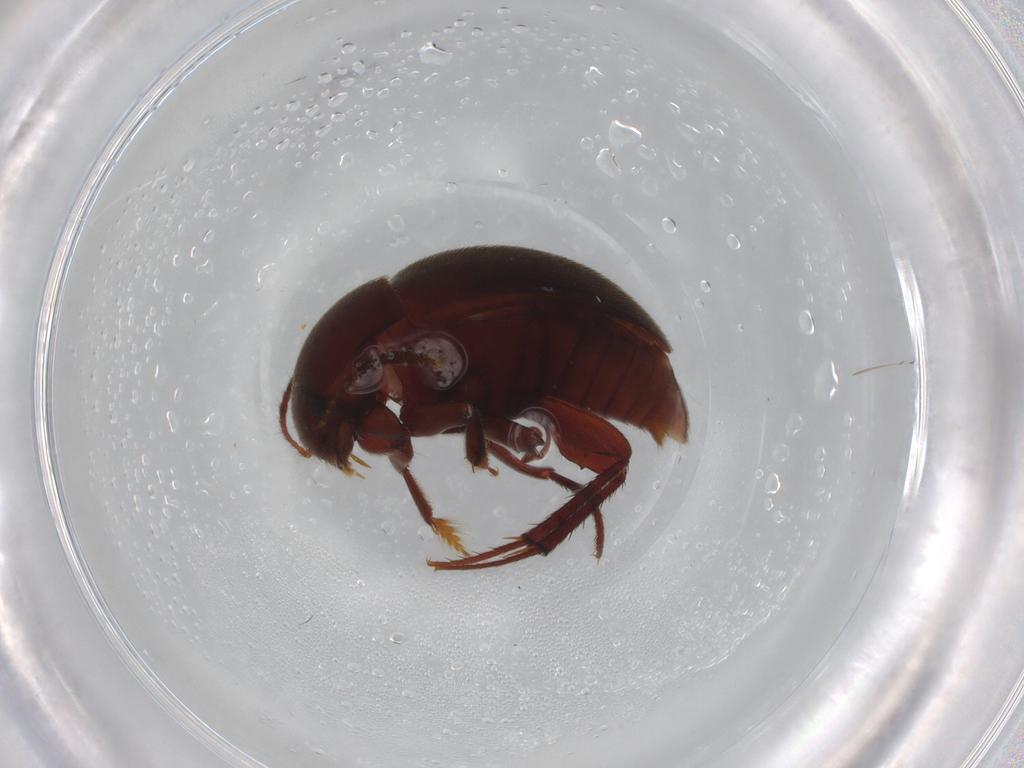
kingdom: Animalia
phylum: Arthropoda
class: Insecta
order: Coleoptera
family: Leiodidae
